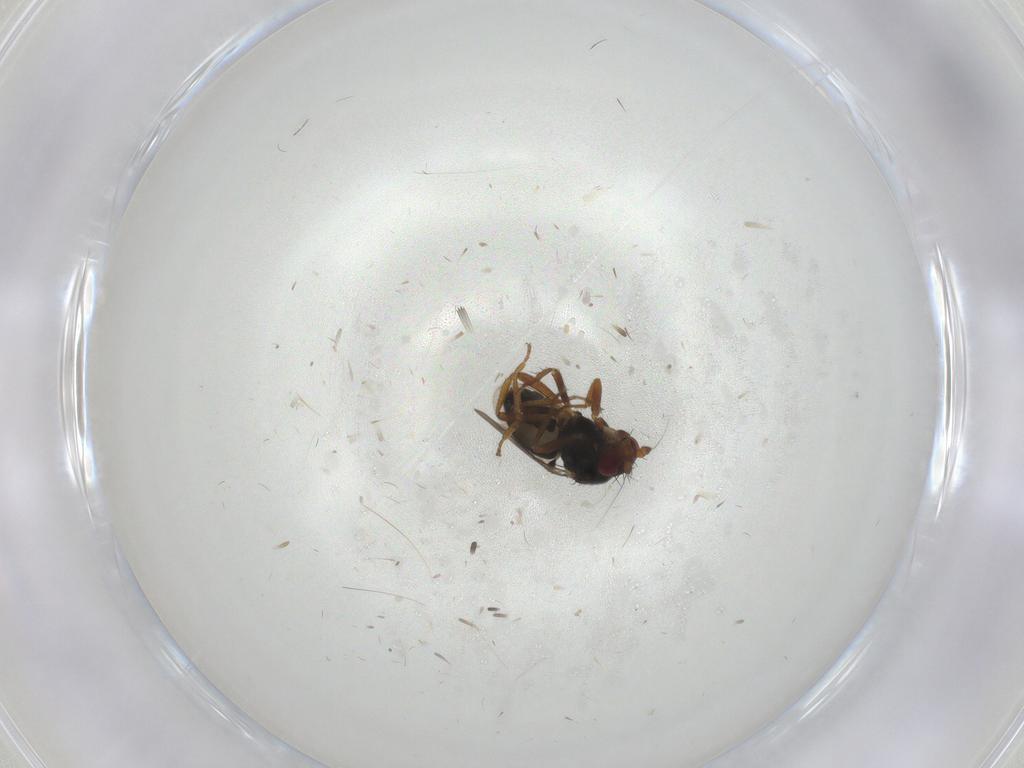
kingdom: Animalia
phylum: Arthropoda
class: Insecta
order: Diptera
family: Sphaeroceridae
